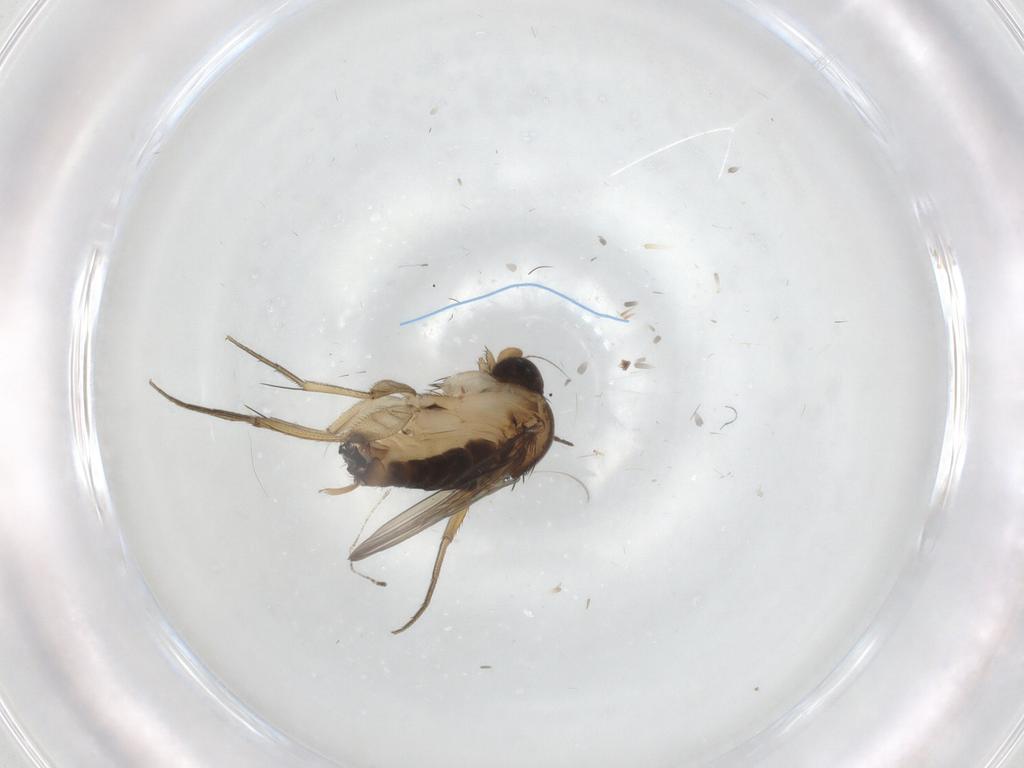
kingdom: Animalia
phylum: Arthropoda
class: Insecta
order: Diptera
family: Phoridae
